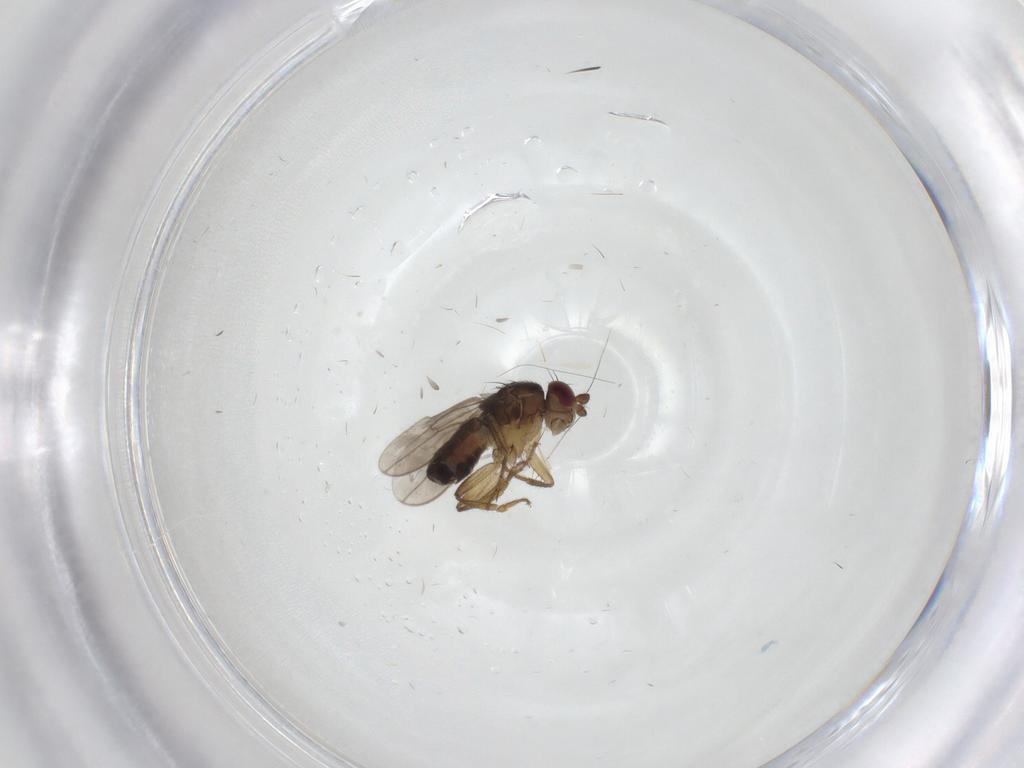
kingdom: Animalia
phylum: Arthropoda
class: Insecta
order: Diptera
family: Sphaeroceridae
